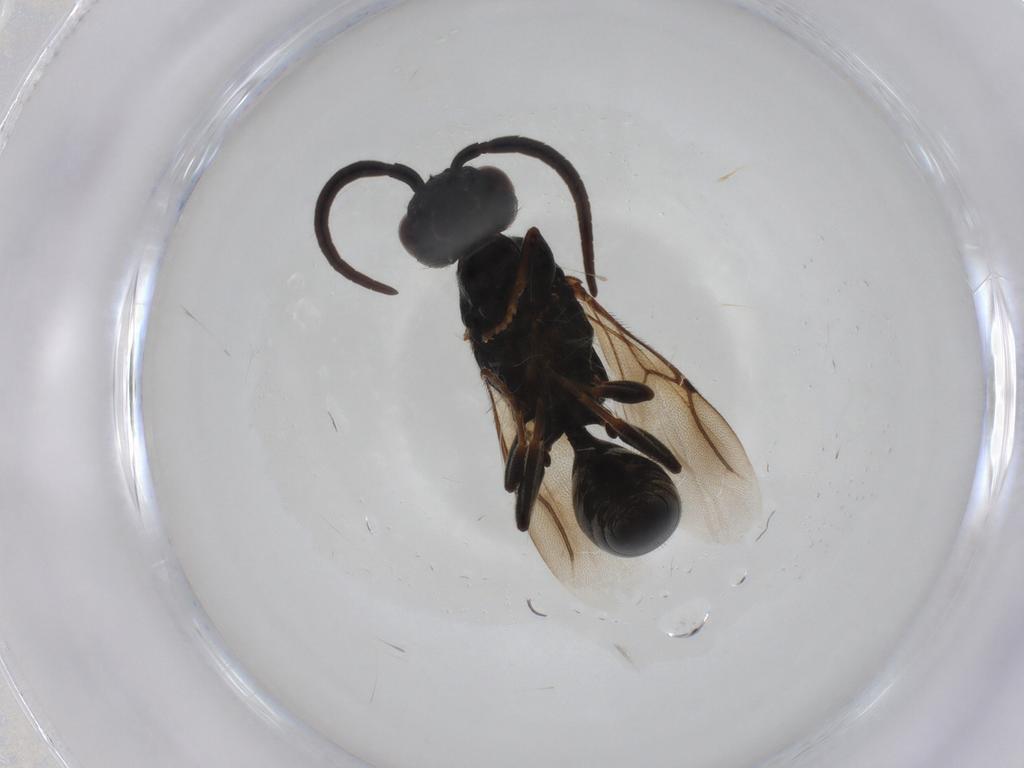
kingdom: Animalia
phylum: Arthropoda
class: Insecta
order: Hymenoptera
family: Bethylidae
